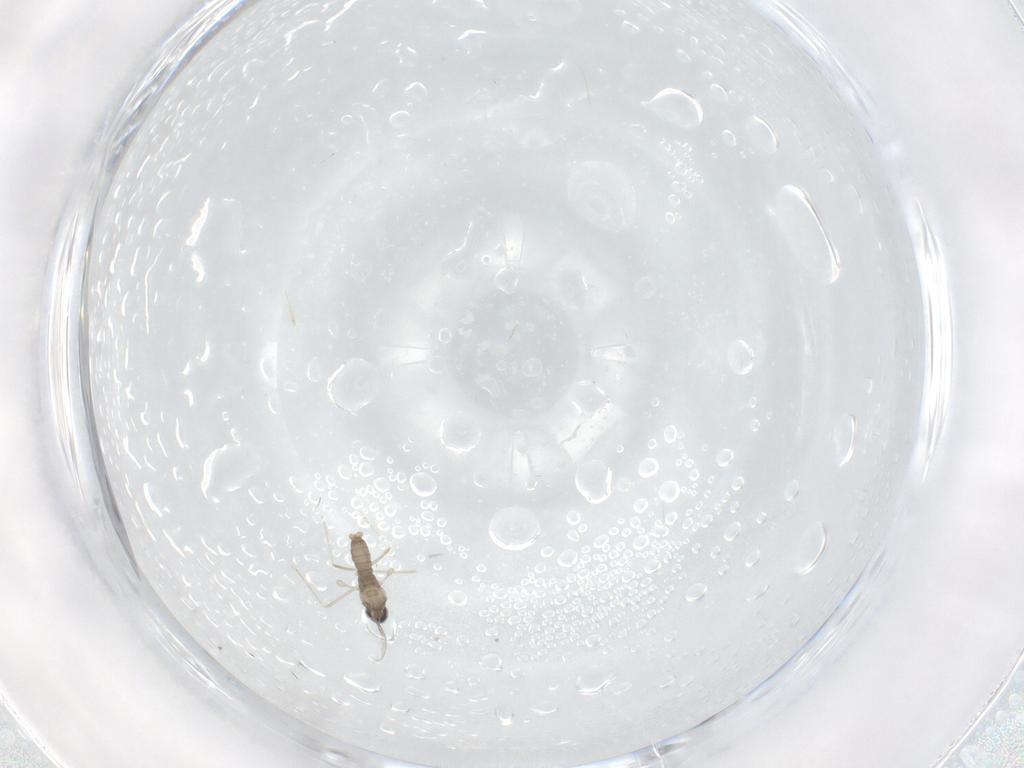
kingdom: Animalia
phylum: Arthropoda
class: Insecta
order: Diptera
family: Cecidomyiidae
